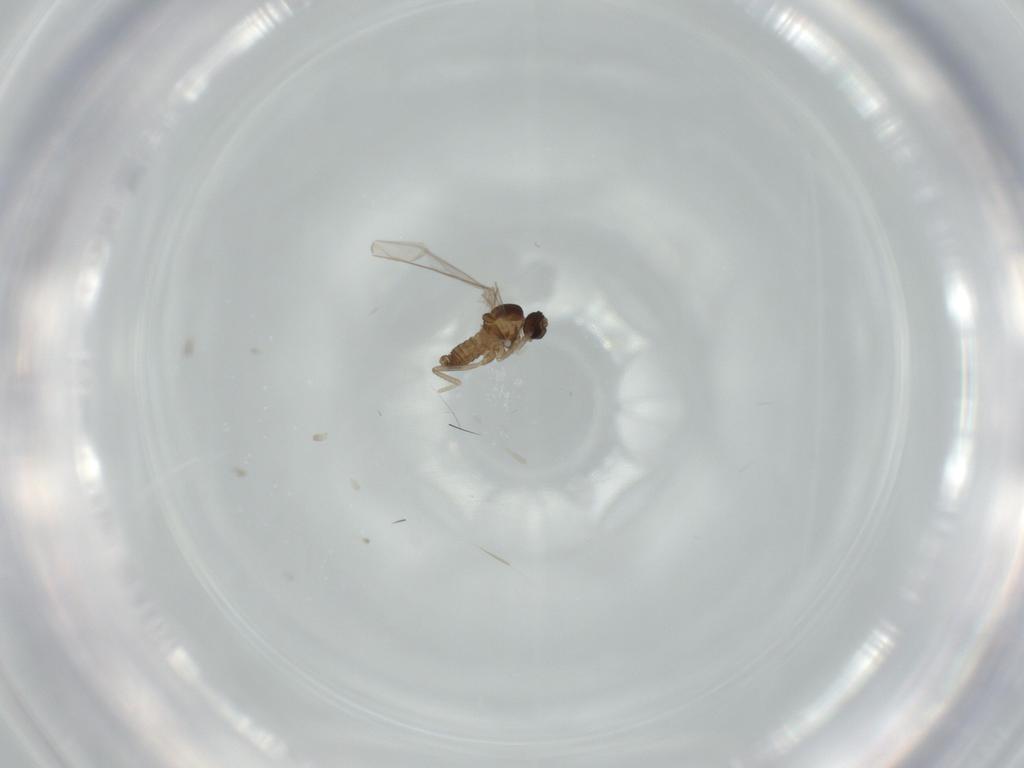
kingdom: Animalia
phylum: Arthropoda
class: Insecta
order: Diptera
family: Cecidomyiidae
